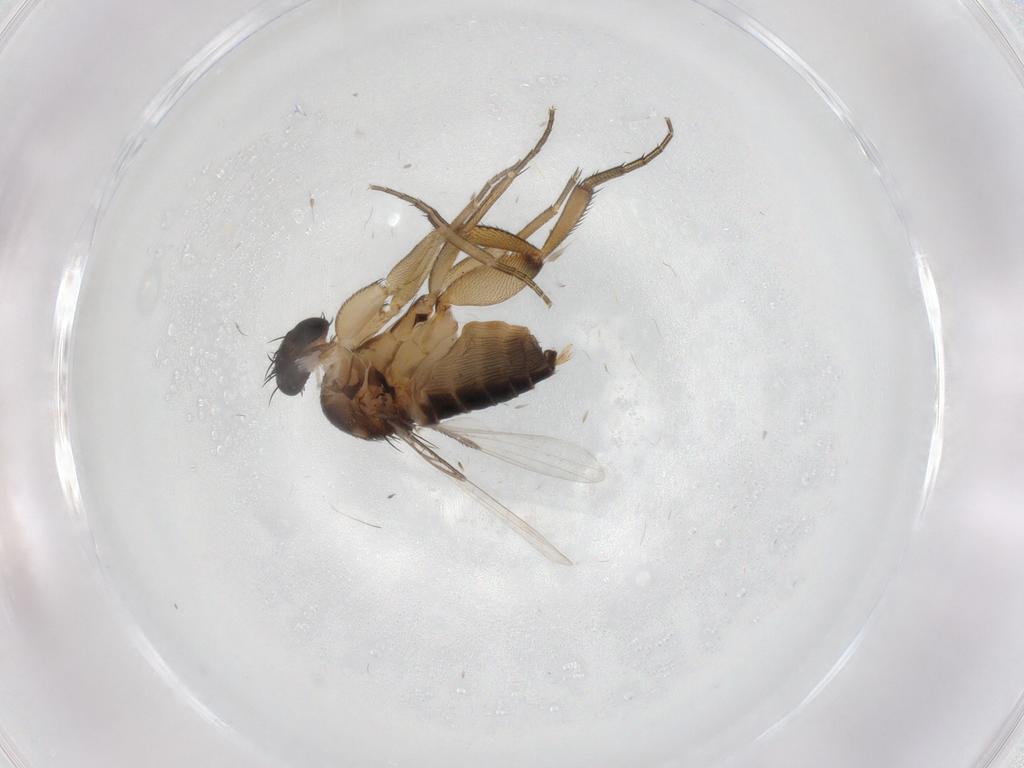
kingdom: Animalia
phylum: Arthropoda
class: Insecta
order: Diptera
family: Phoridae
